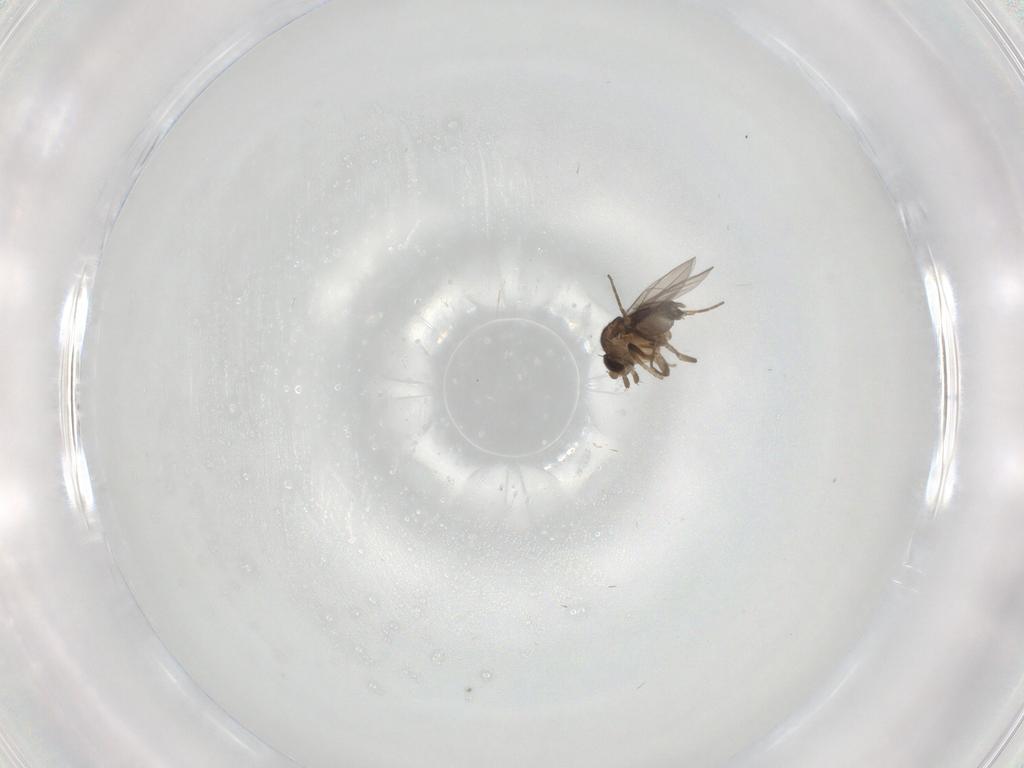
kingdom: Animalia
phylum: Arthropoda
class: Insecta
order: Diptera
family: Phoridae
